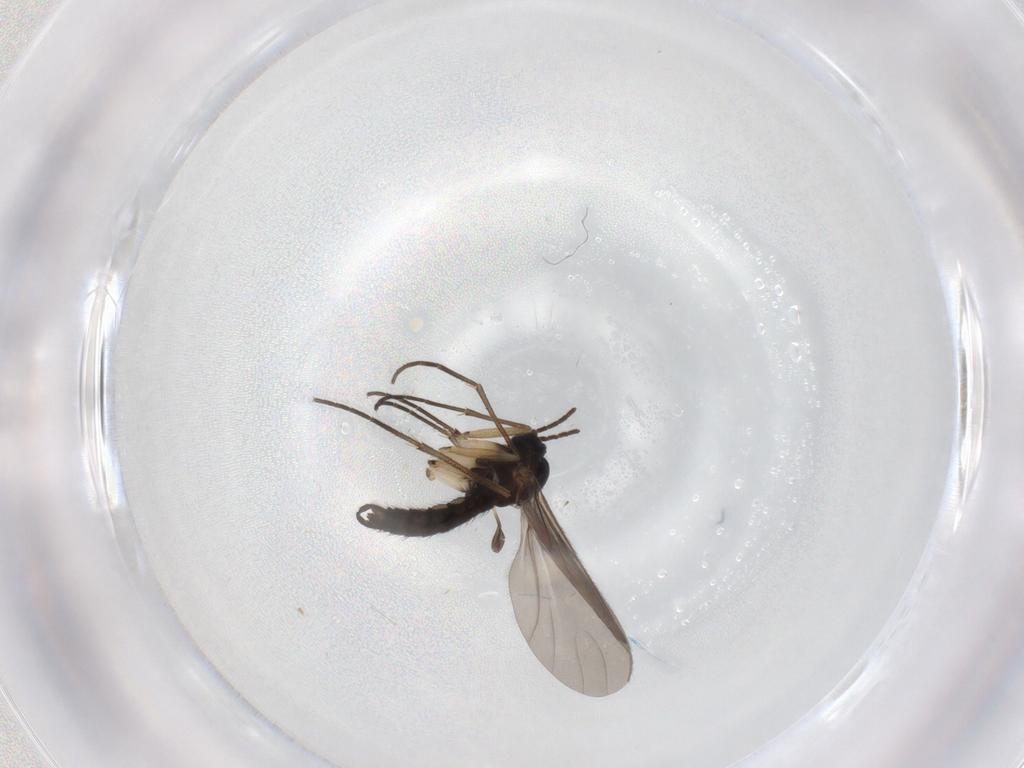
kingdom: Animalia
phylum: Arthropoda
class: Insecta
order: Diptera
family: Sciaridae
